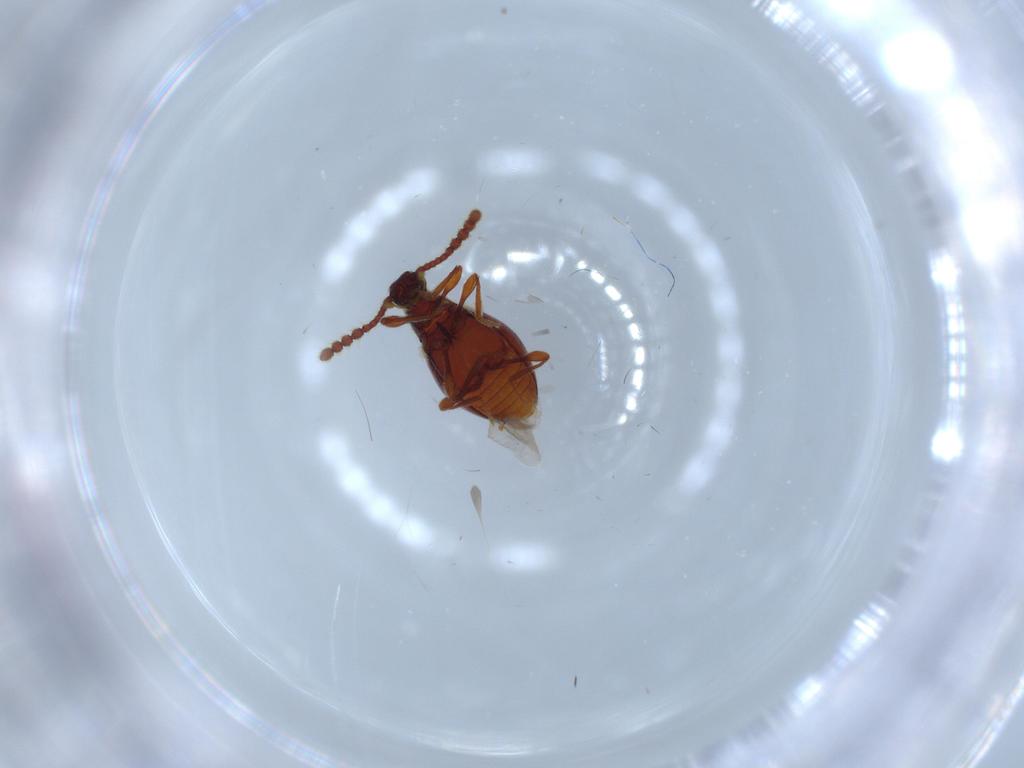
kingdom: Animalia
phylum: Arthropoda
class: Insecta
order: Coleoptera
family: Staphylinidae
